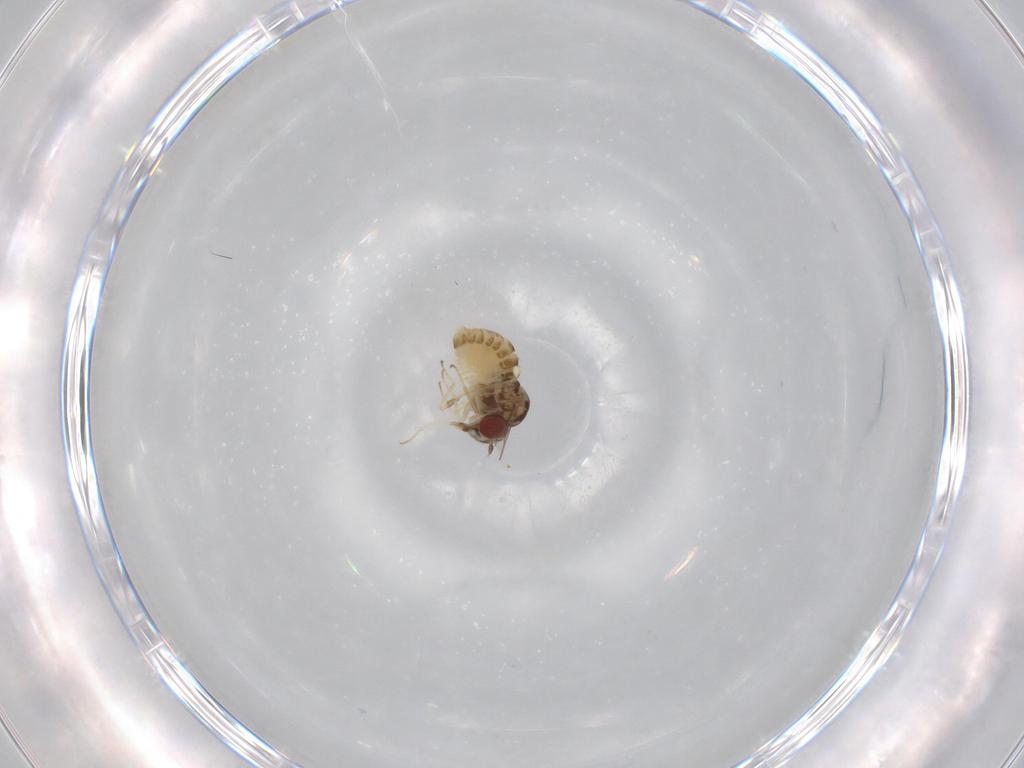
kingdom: Animalia
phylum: Arthropoda
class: Insecta
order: Diptera
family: Bombyliidae
